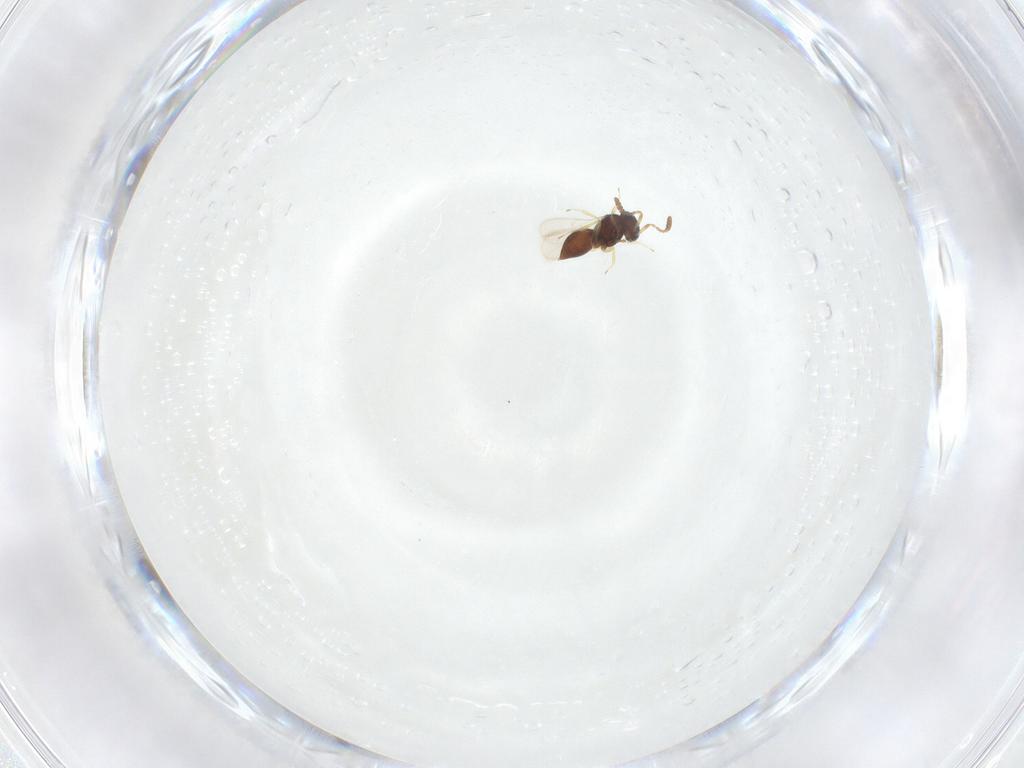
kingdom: Animalia
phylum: Arthropoda
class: Insecta
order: Hymenoptera
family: Scelionidae
